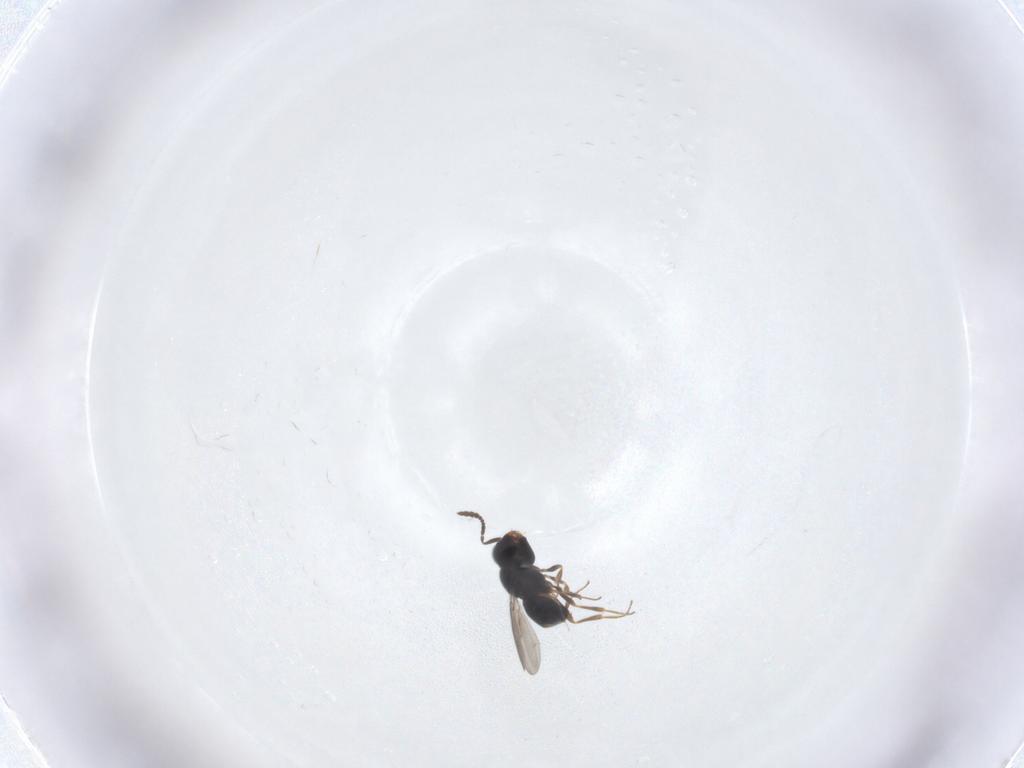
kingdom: Animalia
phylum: Arthropoda
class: Insecta
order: Hymenoptera
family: Scelionidae
